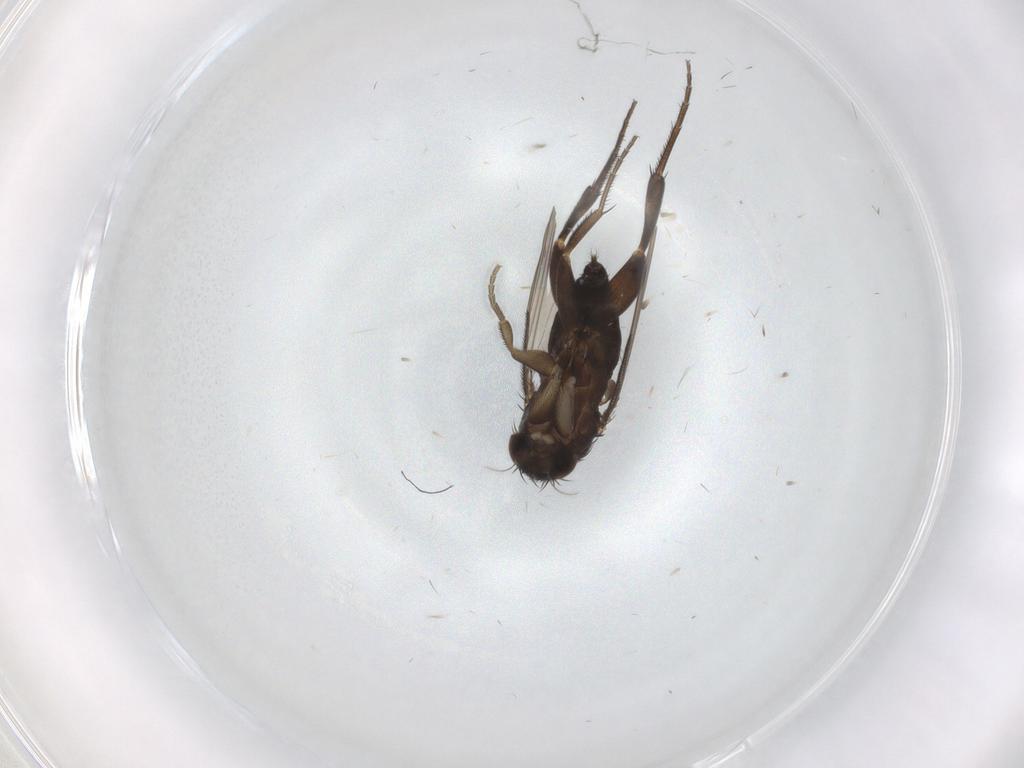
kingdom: Animalia
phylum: Arthropoda
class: Insecta
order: Diptera
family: Phoridae
